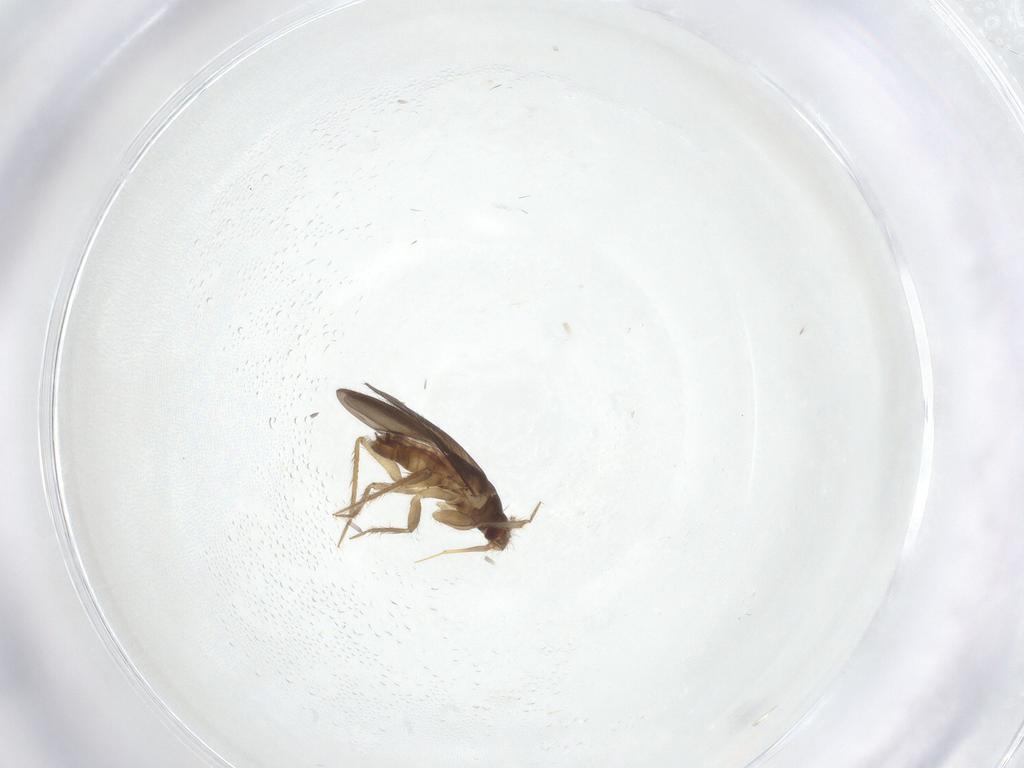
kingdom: Animalia
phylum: Arthropoda
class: Insecta
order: Hemiptera
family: Ceratocombidae
